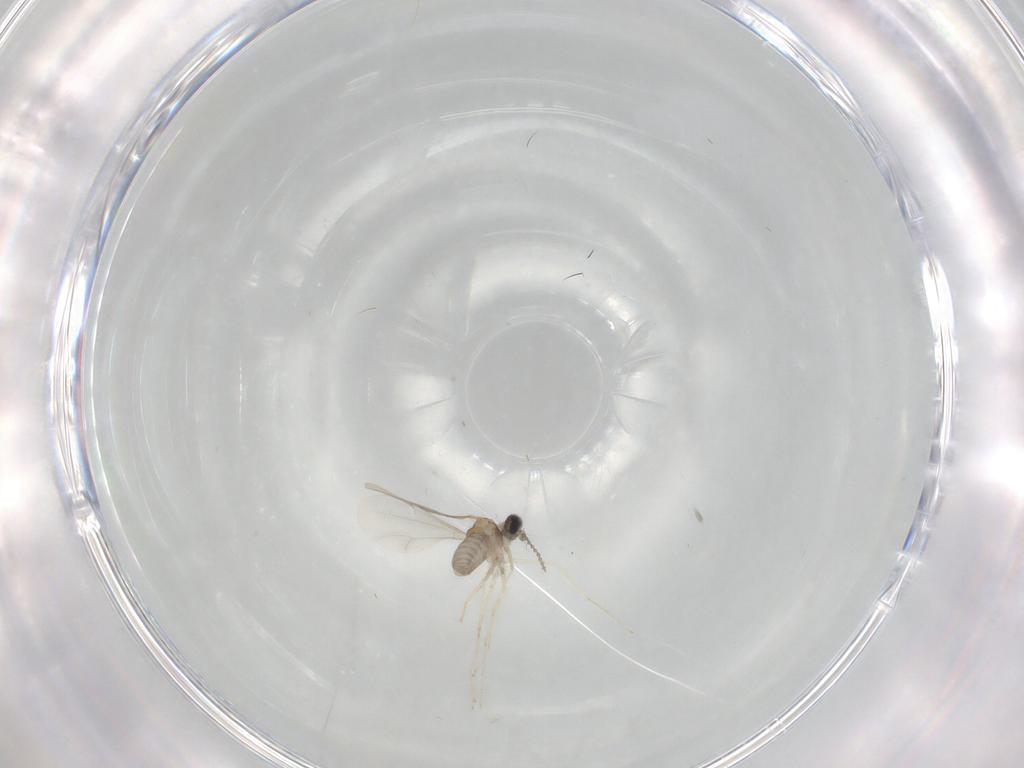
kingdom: Animalia
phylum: Arthropoda
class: Insecta
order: Diptera
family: Cecidomyiidae
